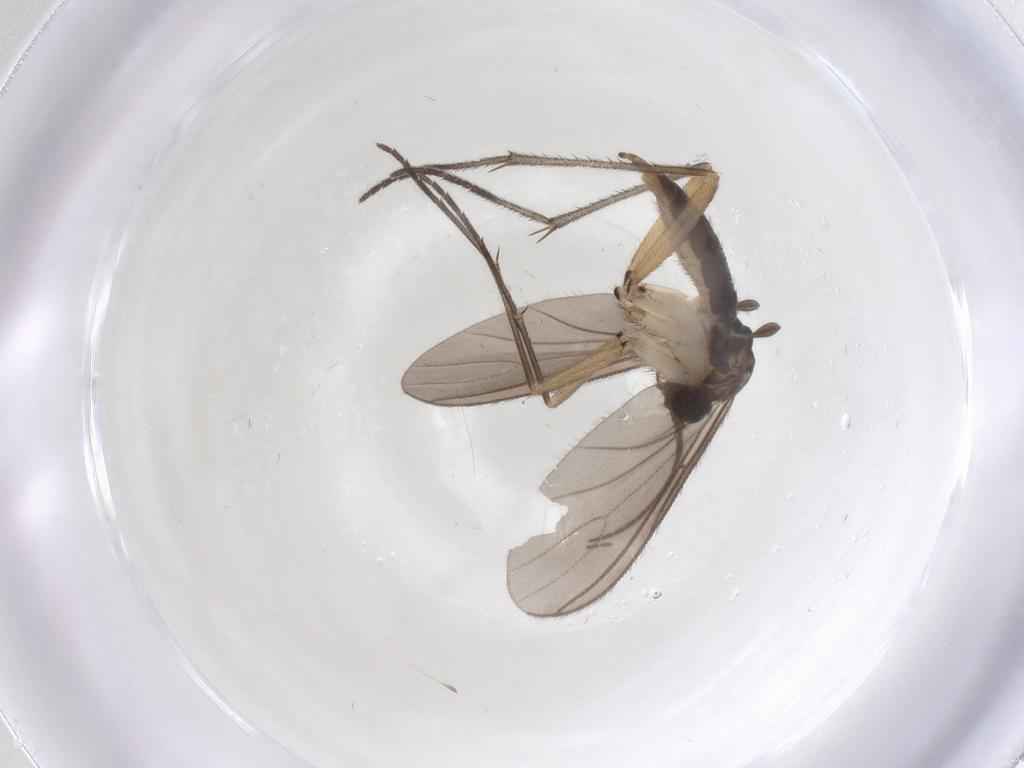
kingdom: Animalia
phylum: Arthropoda
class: Insecta
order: Diptera
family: Sciaridae
